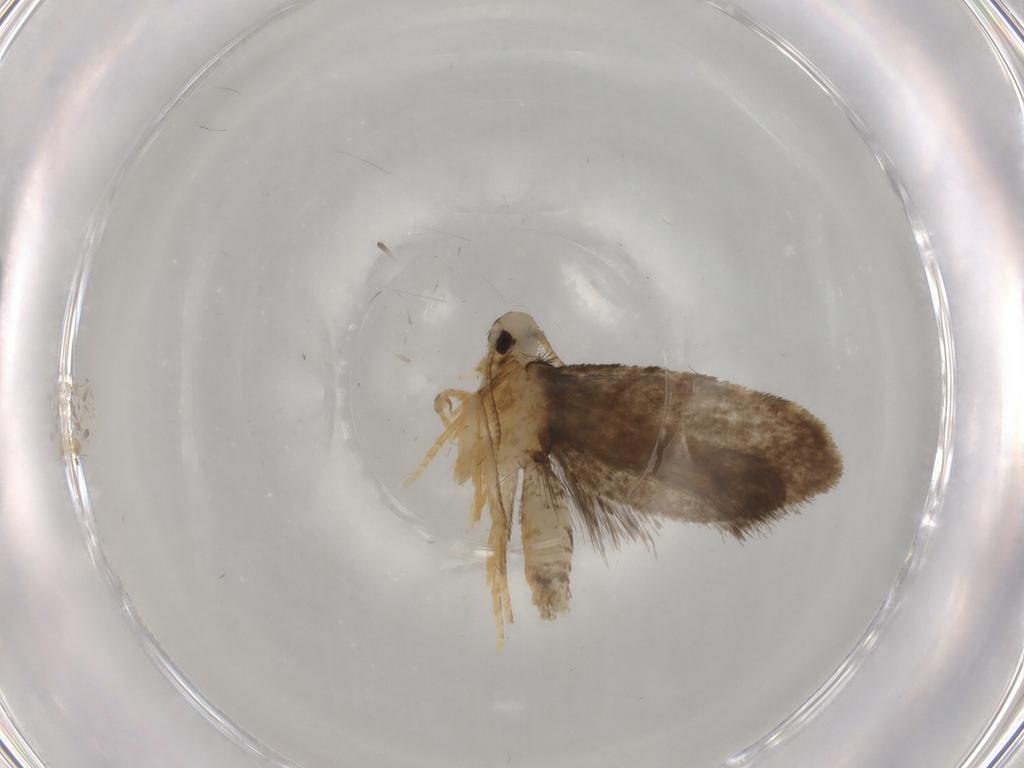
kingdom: Animalia
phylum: Arthropoda
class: Insecta
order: Lepidoptera
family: Psychidae
